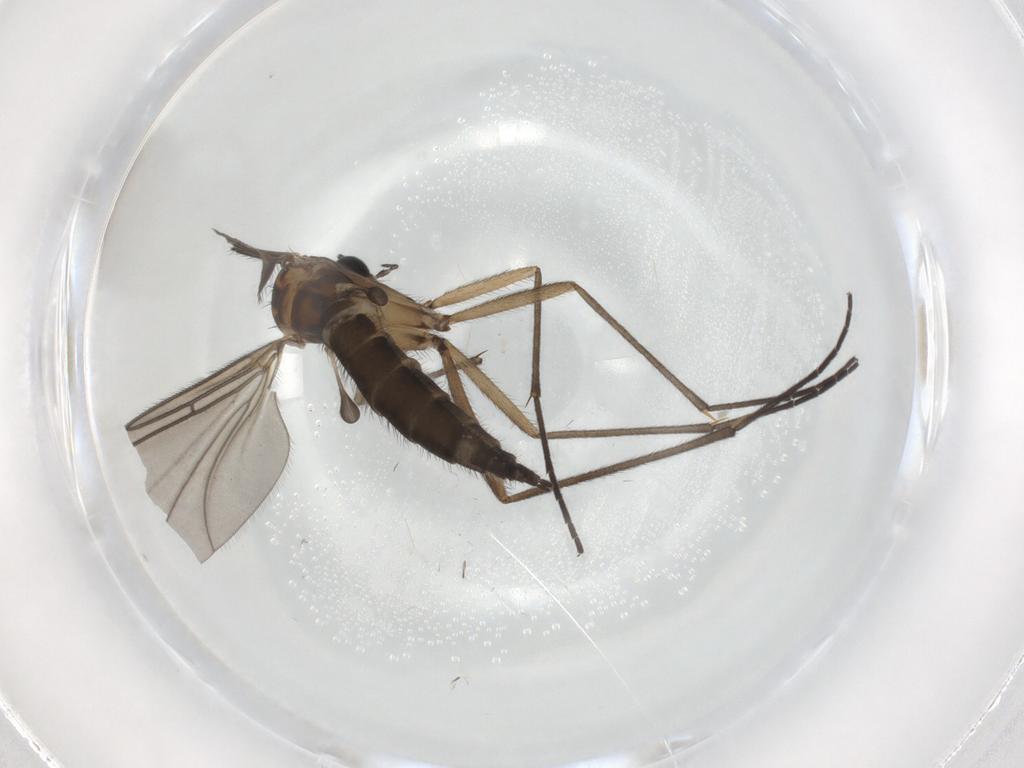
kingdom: Animalia
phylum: Arthropoda
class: Insecta
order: Diptera
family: Sciaridae
